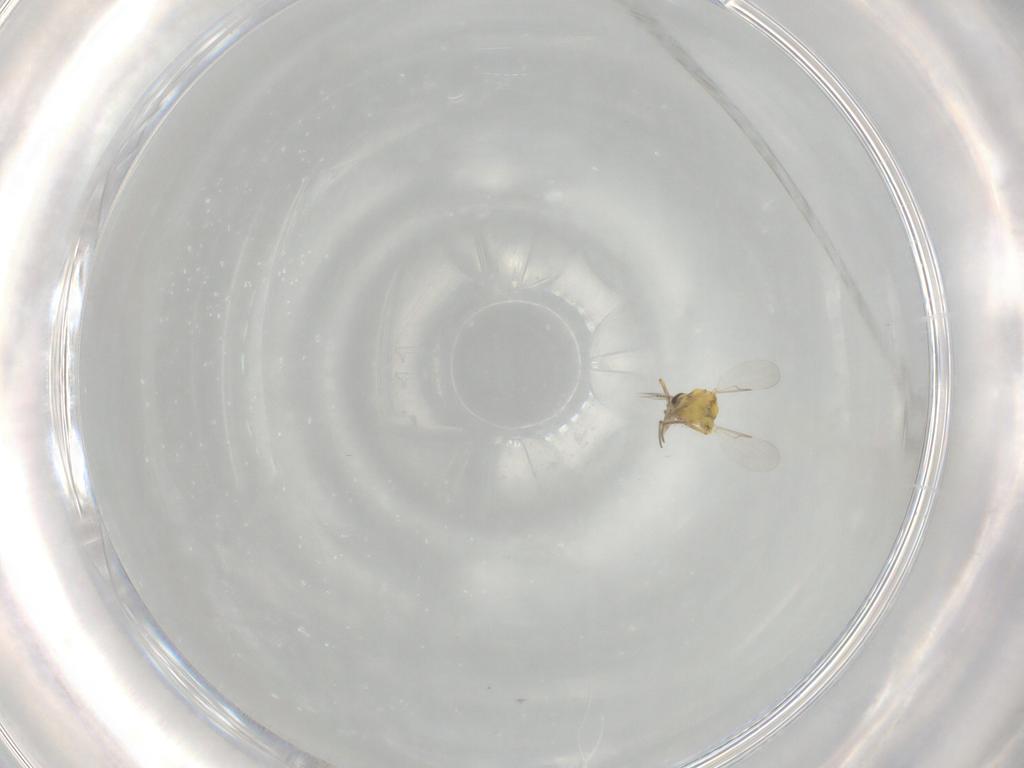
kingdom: Animalia
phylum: Arthropoda
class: Insecta
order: Diptera
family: Ceratopogonidae
